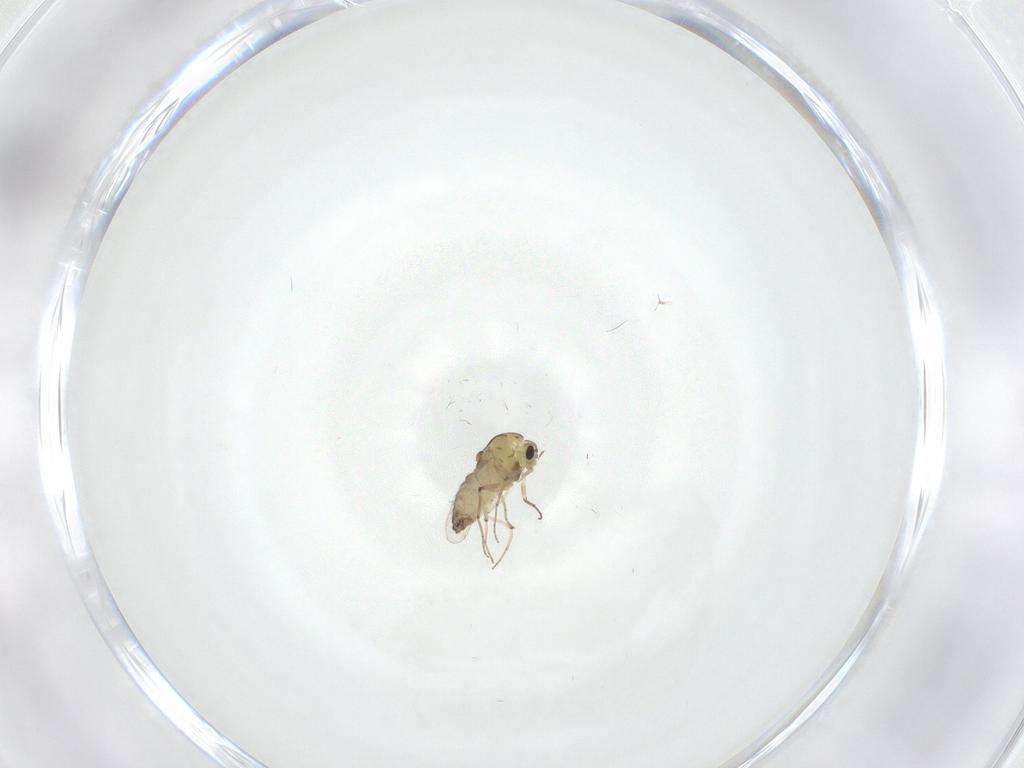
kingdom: Animalia
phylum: Arthropoda
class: Insecta
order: Diptera
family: Chironomidae
